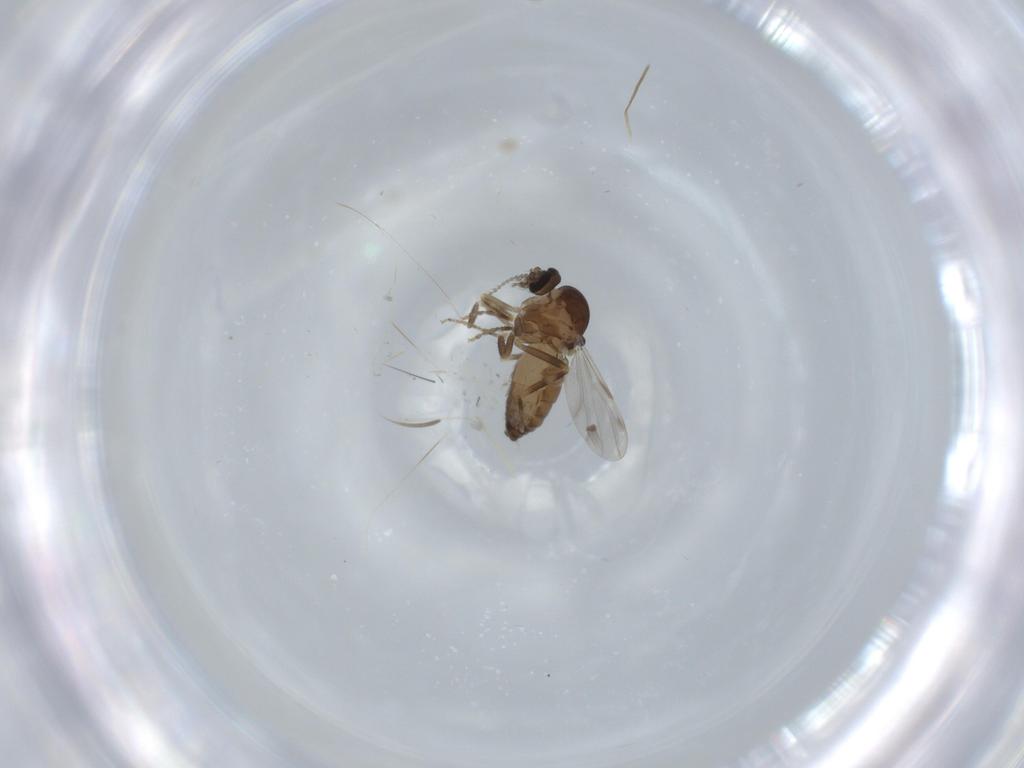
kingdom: Animalia
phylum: Arthropoda
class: Insecta
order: Diptera
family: Ceratopogonidae
